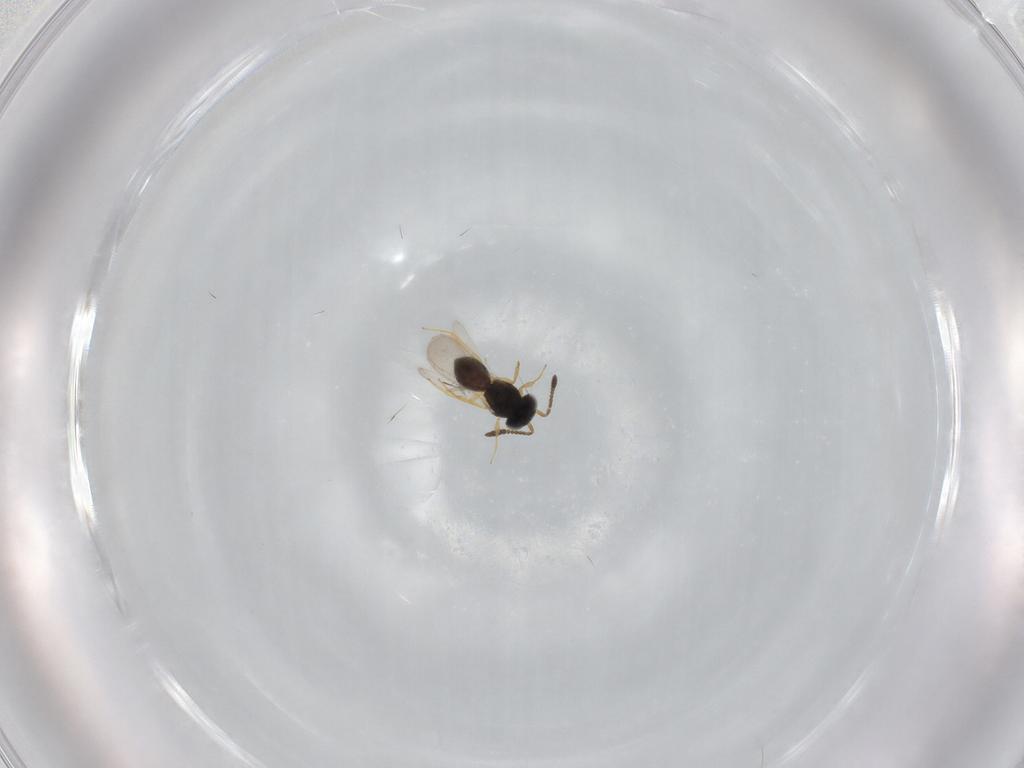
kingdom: Animalia
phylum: Arthropoda
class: Insecta
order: Hymenoptera
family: Scelionidae
